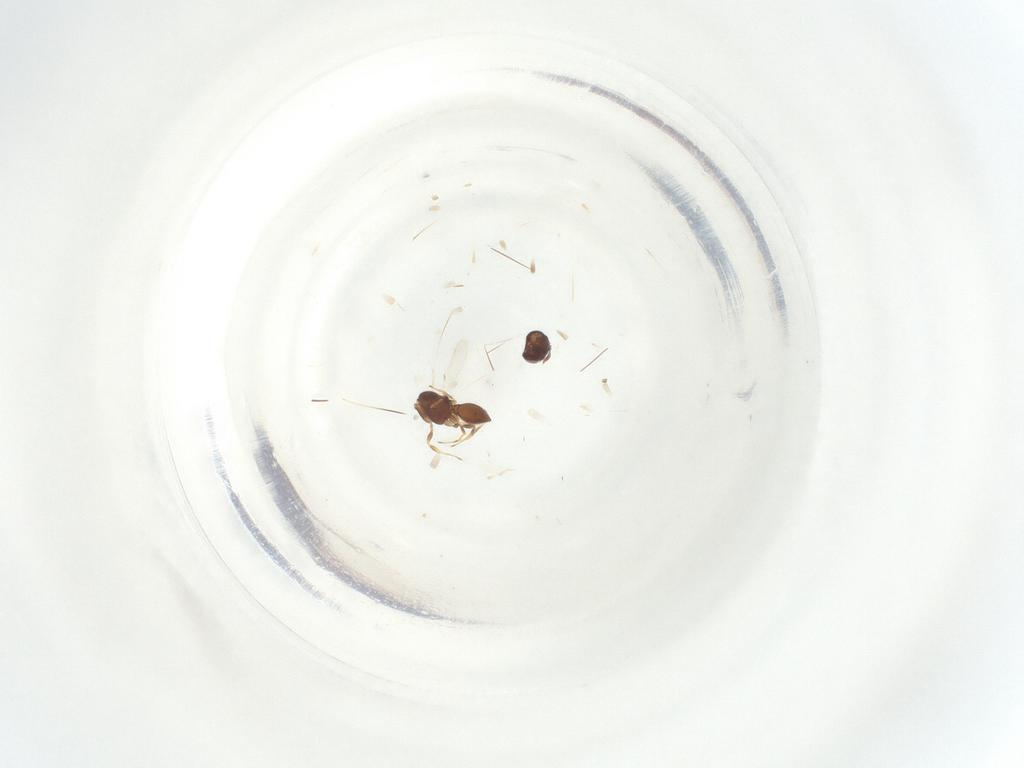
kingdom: Animalia
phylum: Arthropoda
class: Insecta
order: Hymenoptera
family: Scelionidae
